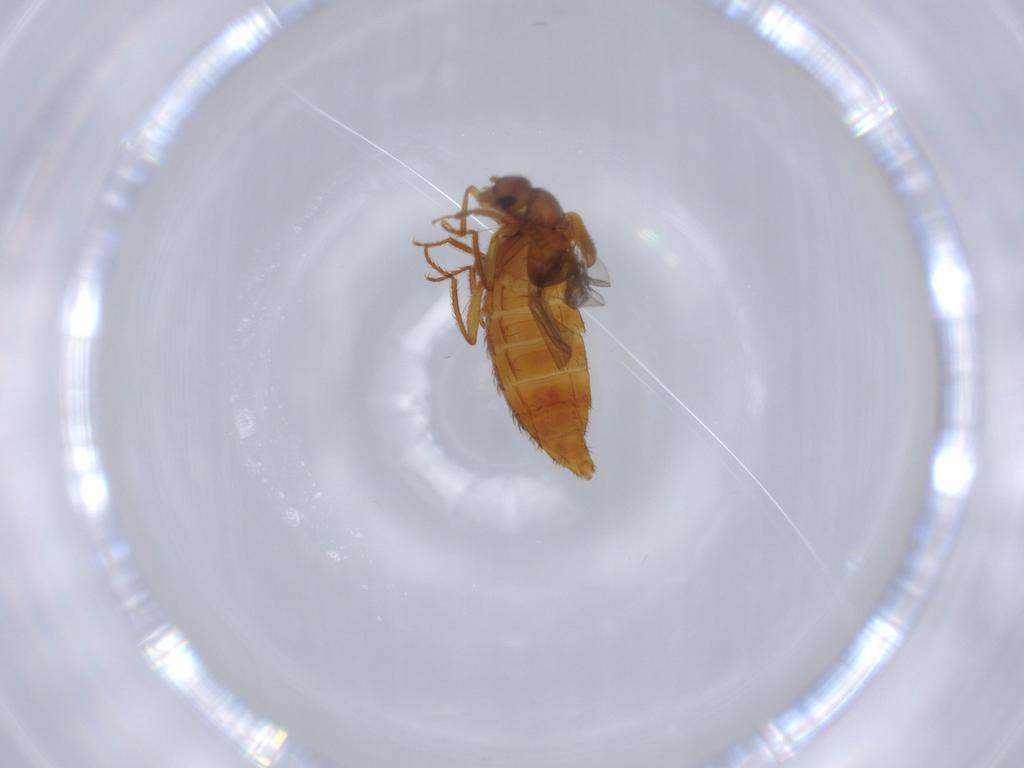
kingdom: Animalia
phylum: Arthropoda
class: Insecta
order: Coleoptera
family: Staphylinidae
